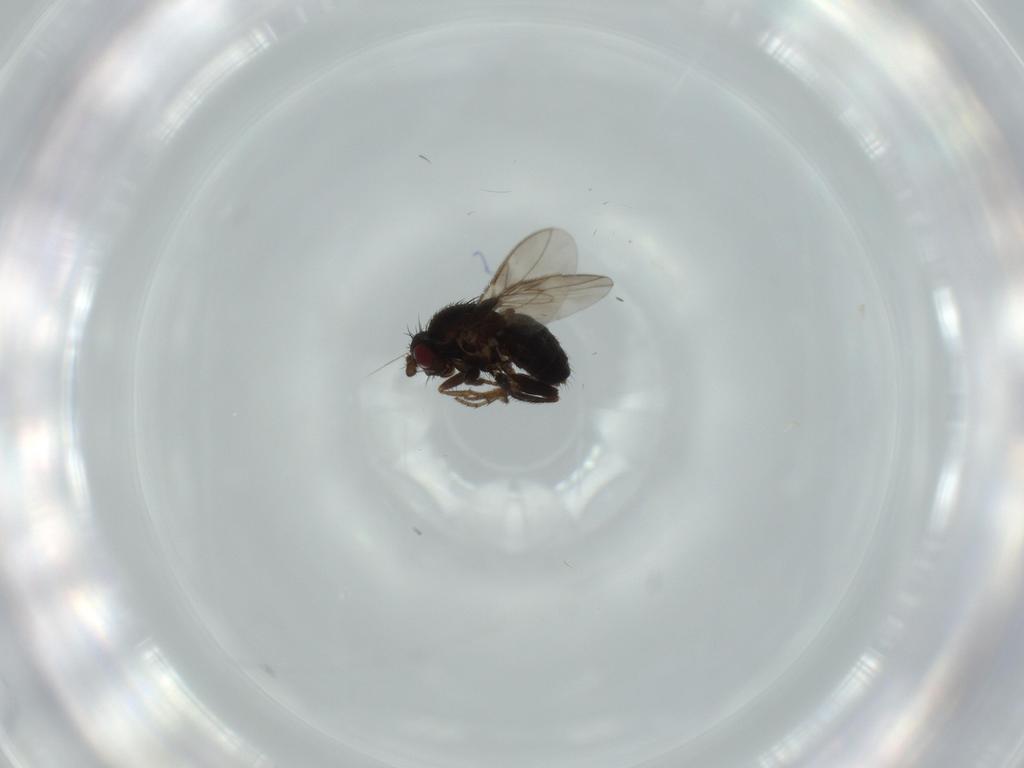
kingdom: Animalia
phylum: Arthropoda
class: Insecta
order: Diptera
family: Sphaeroceridae
